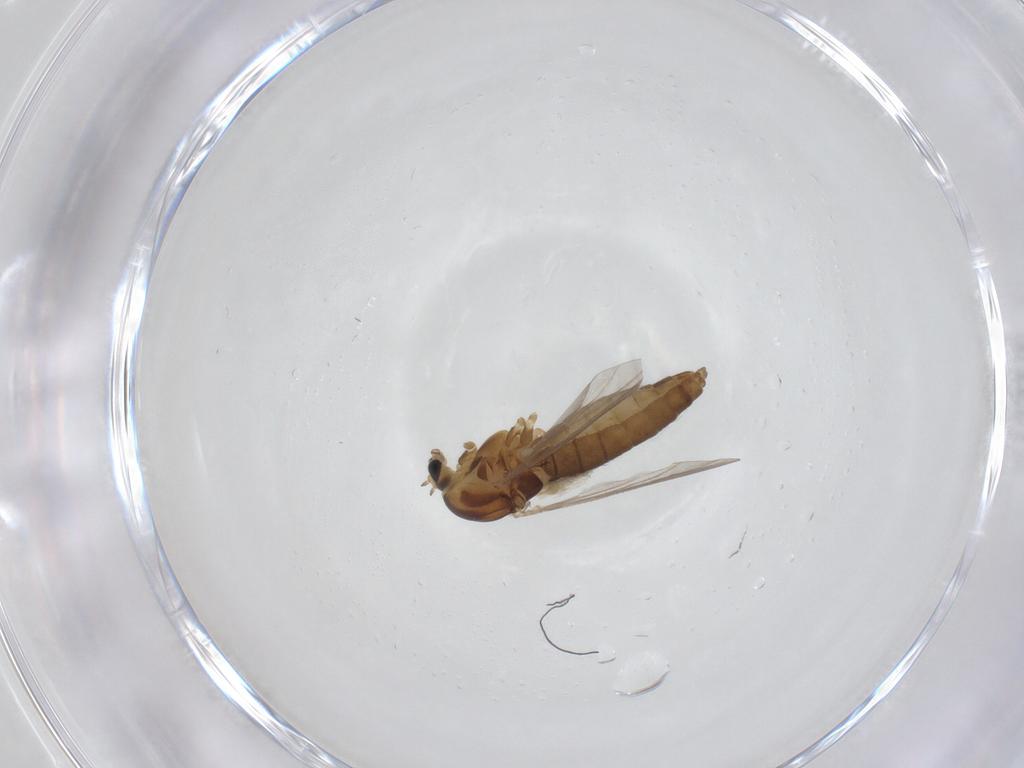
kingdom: Animalia
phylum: Arthropoda
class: Insecta
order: Diptera
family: Chironomidae
